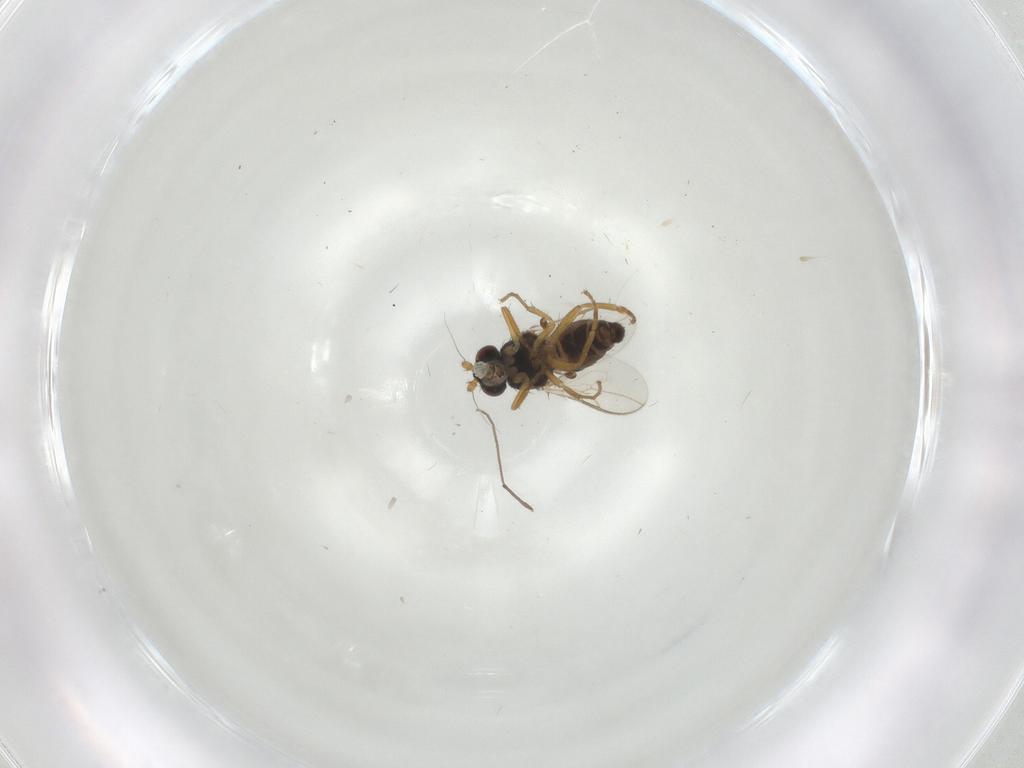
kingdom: Animalia
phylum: Arthropoda
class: Insecta
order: Diptera
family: Sphaeroceridae
